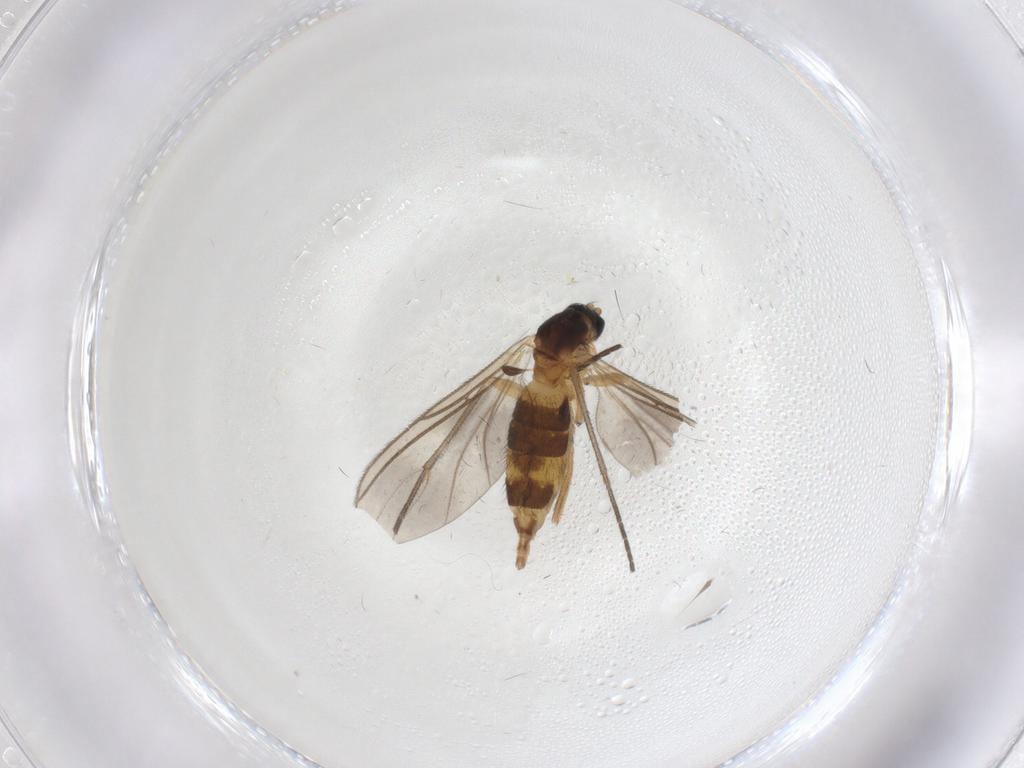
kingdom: Animalia
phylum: Arthropoda
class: Insecta
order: Diptera
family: Sciaridae
